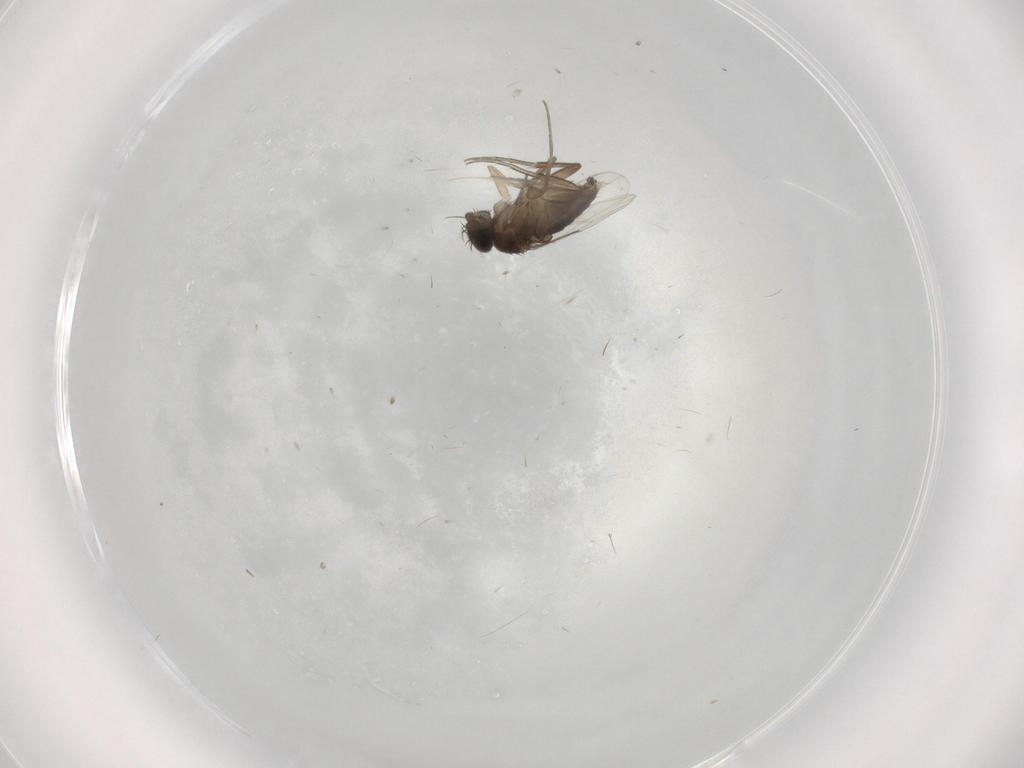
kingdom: Animalia
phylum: Arthropoda
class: Insecta
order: Diptera
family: Phoridae
